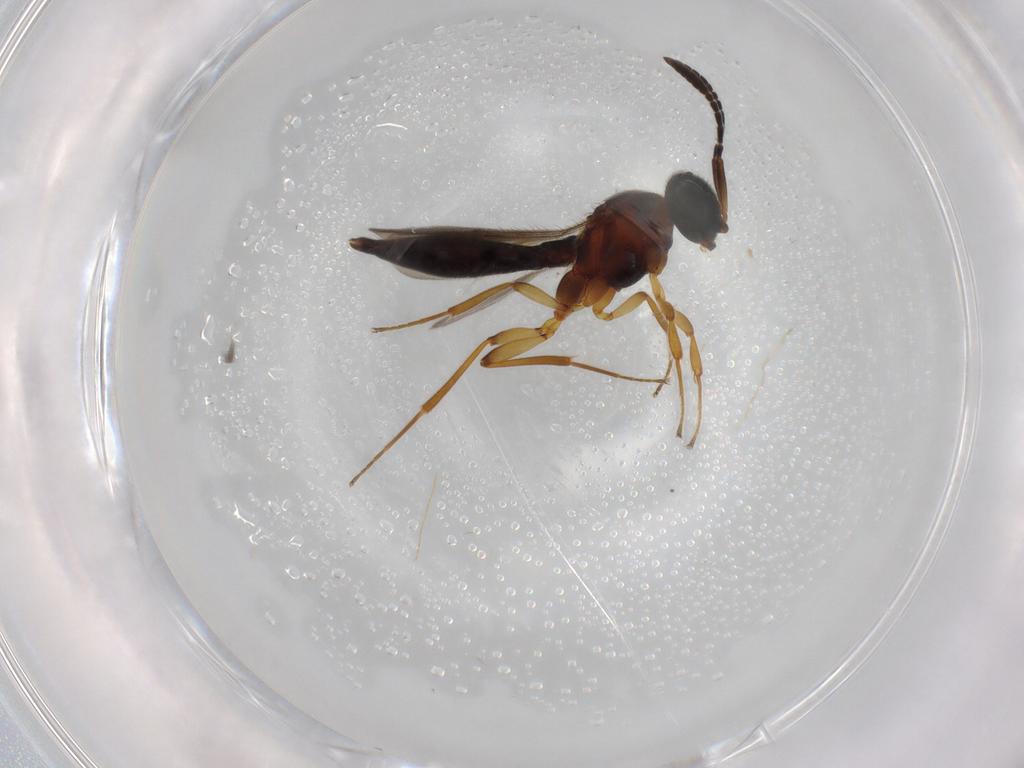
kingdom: Animalia
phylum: Arthropoda
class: Insecta
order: Hymenoptera
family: Scelionidae
